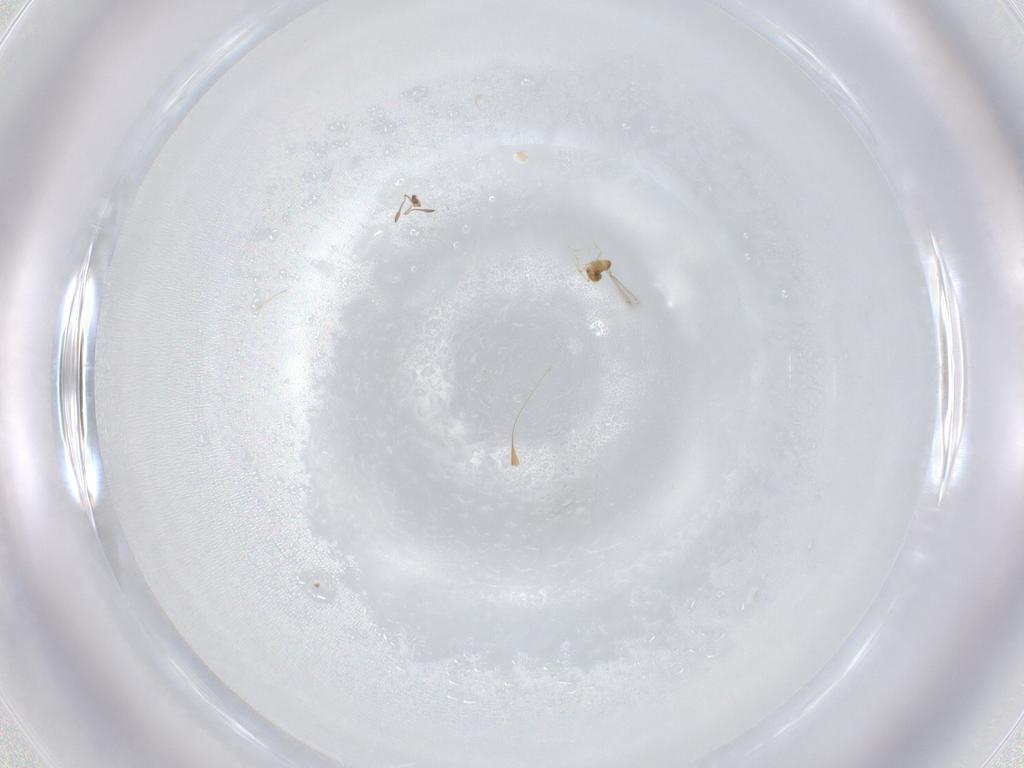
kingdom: Animalia
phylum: Arthropoda
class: Insecta
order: Hymenoptera
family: Mymaridae
